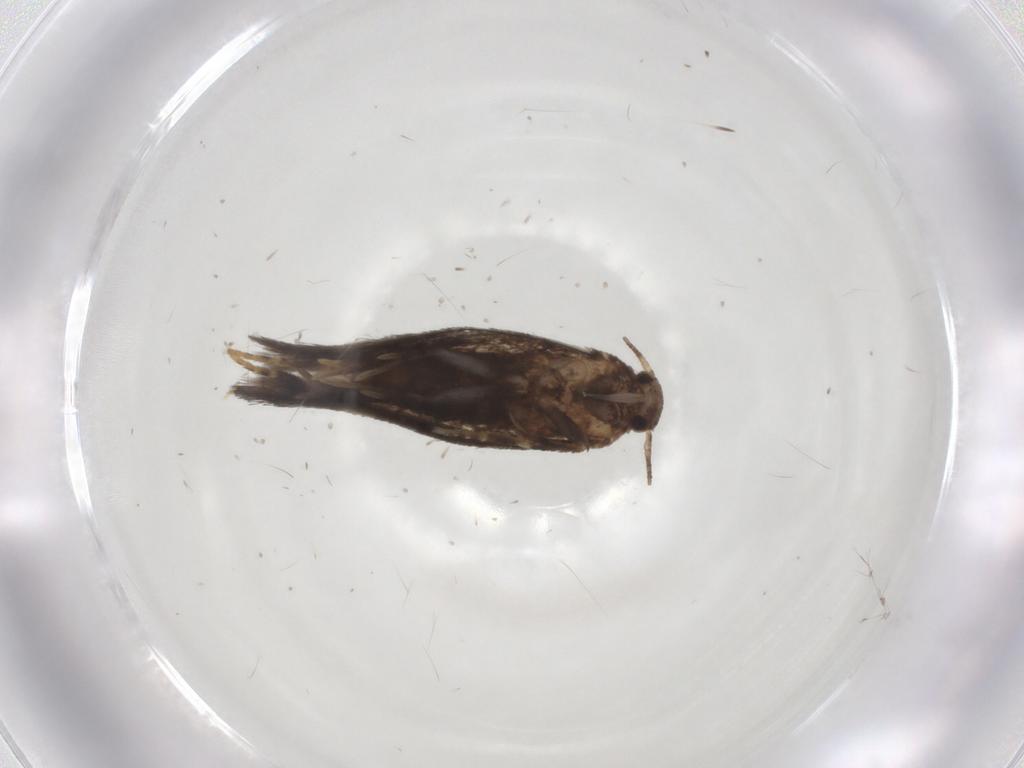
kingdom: Animalia
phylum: Arthropoda
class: Insecta
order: Lepidoptera
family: Elachistidae
